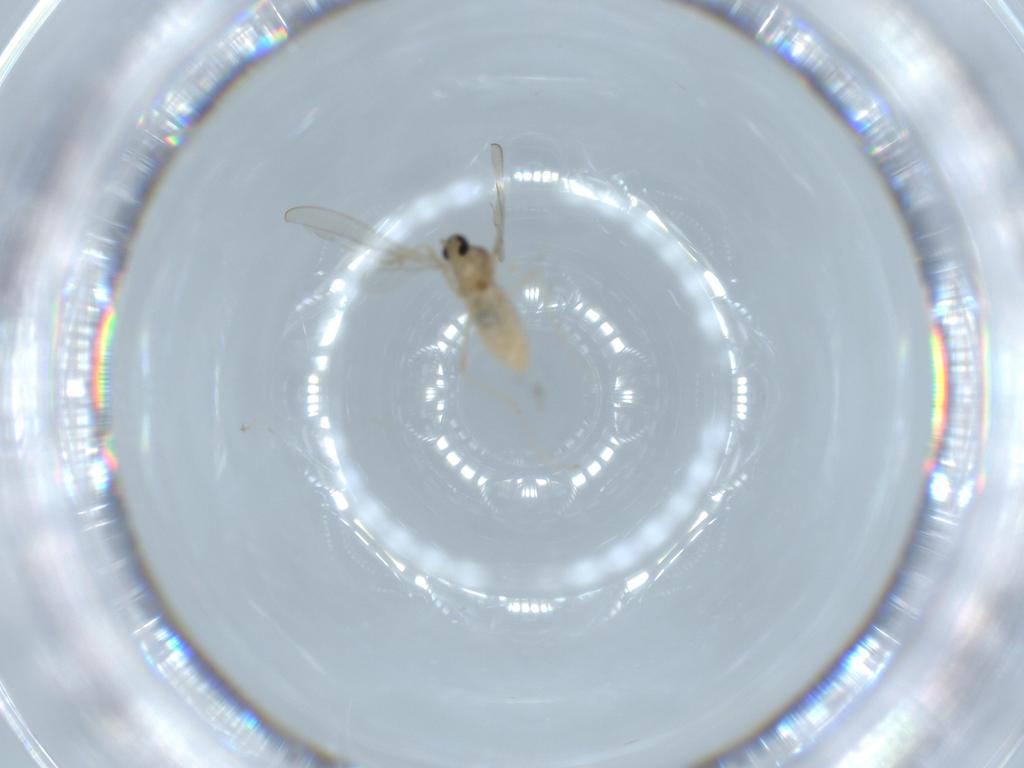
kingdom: Animalia
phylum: Arthropoda
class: Insecta
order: Diptera
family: Cecidomyiidae
